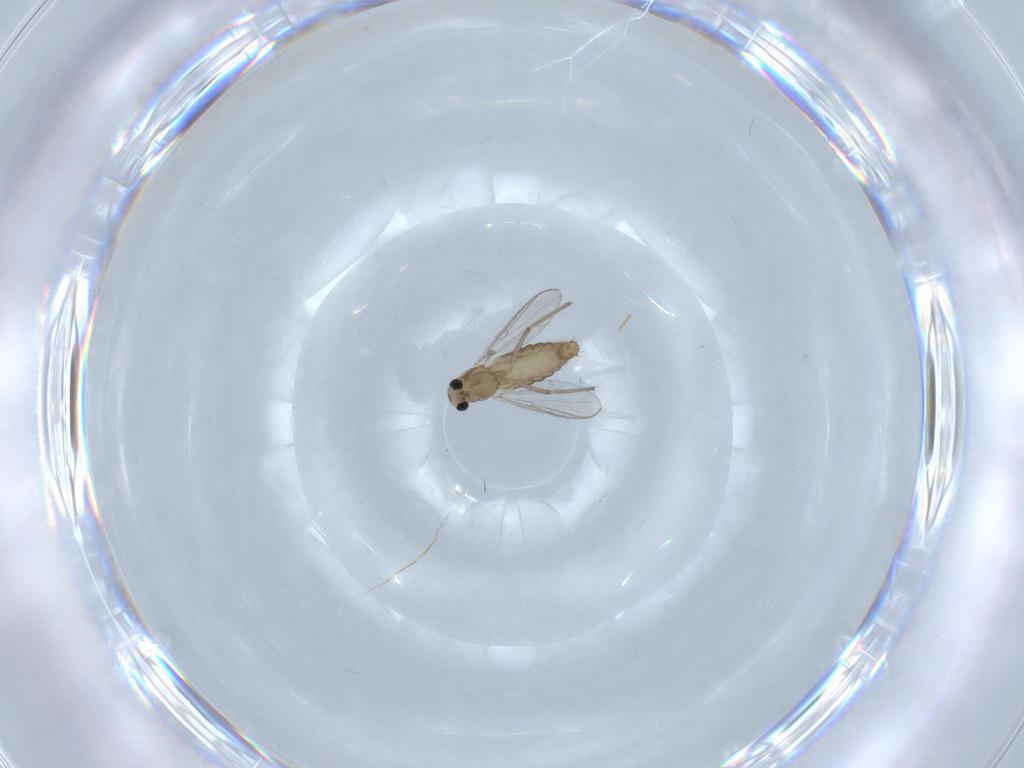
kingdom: Animalia
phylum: Arthropoda
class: Insecta
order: Diptera
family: Chironomidae
